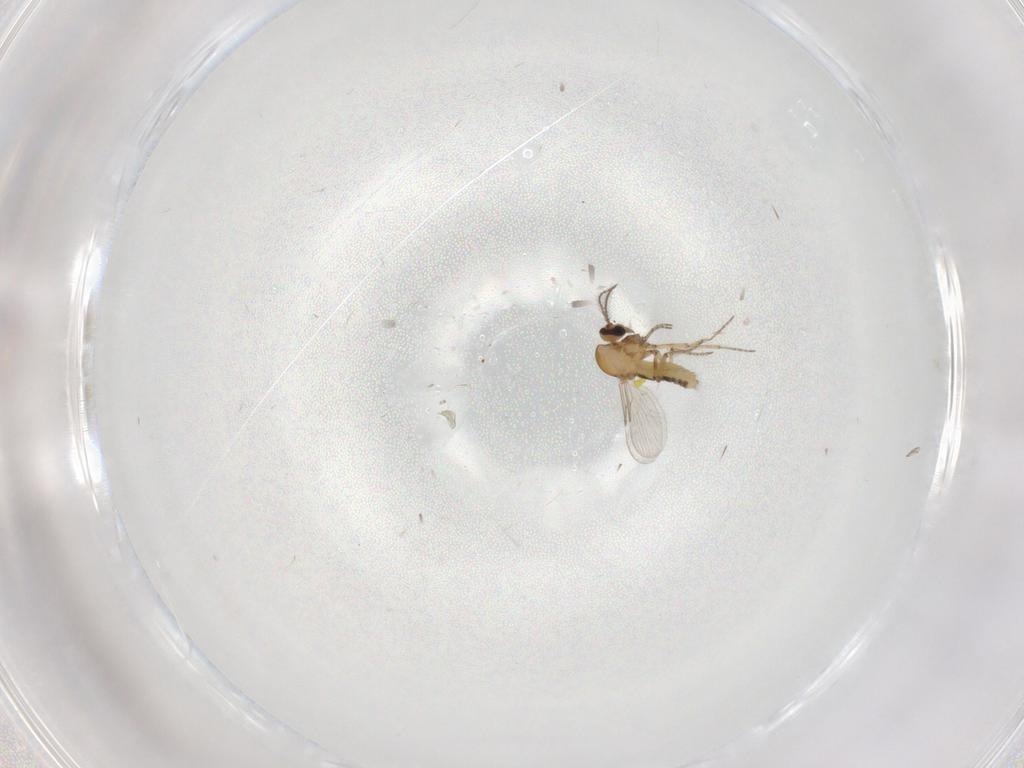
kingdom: Animalia
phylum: Arthropoda
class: Insecta
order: Diptera
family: Ceratopogonidae
